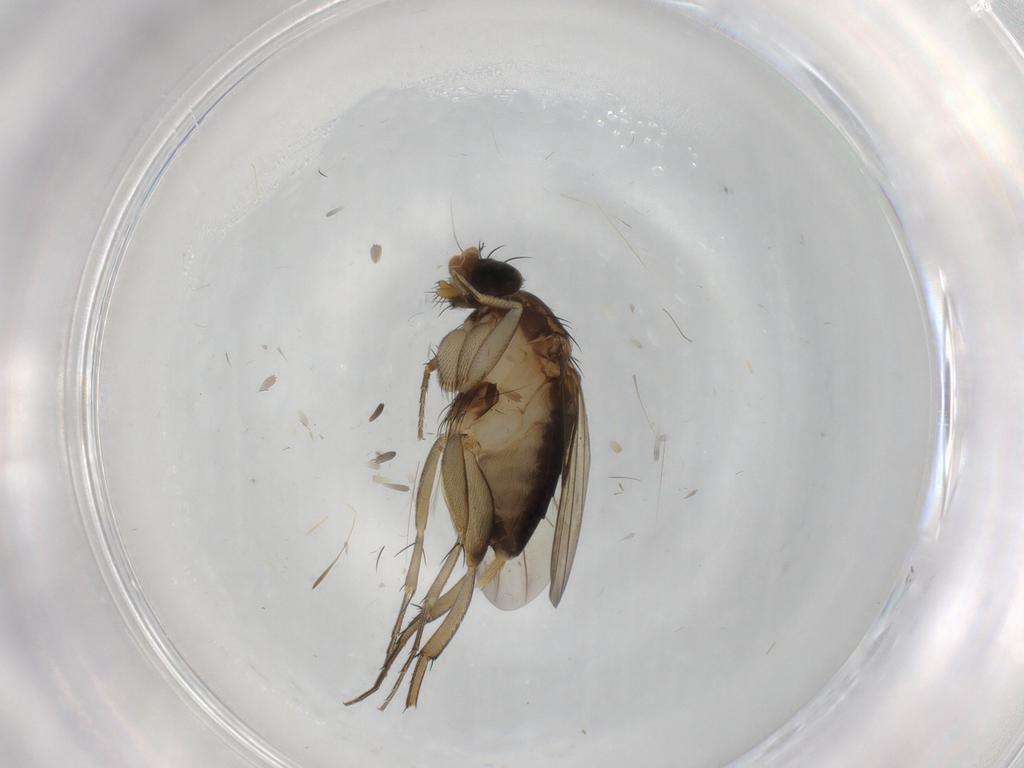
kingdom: Animalia
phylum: Arthropoda
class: Insecta
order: Diptera
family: Phoridae
